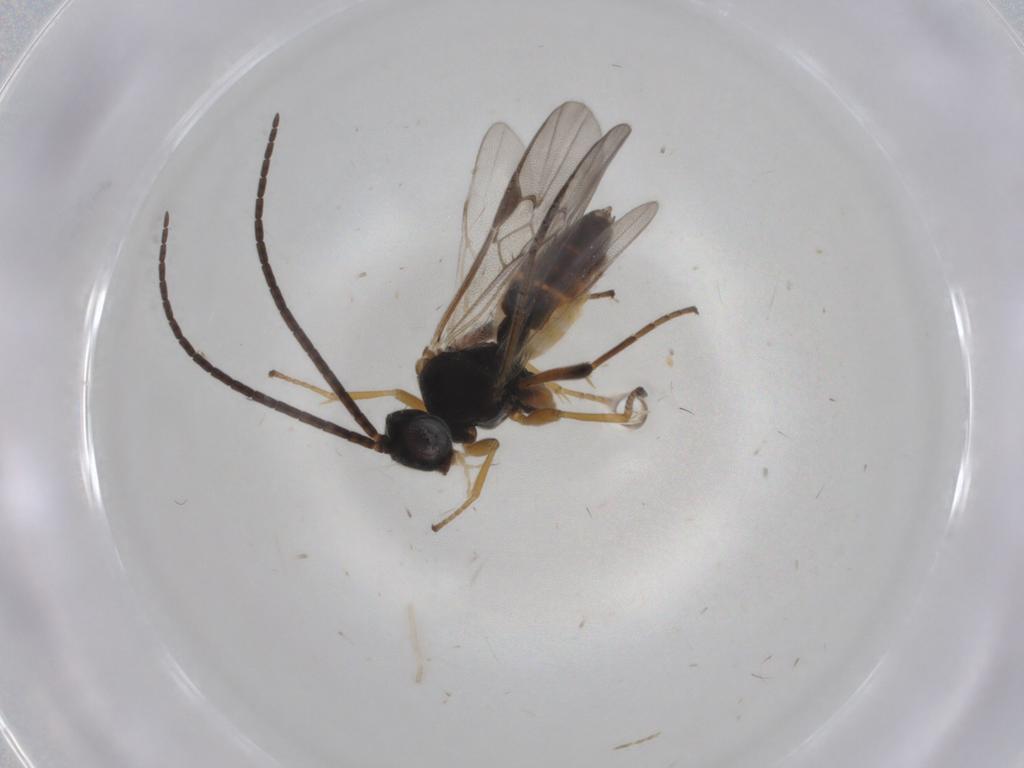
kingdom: Animalia
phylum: Arthropoda
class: Insecta
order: Hymenoptera
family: Braconidae
